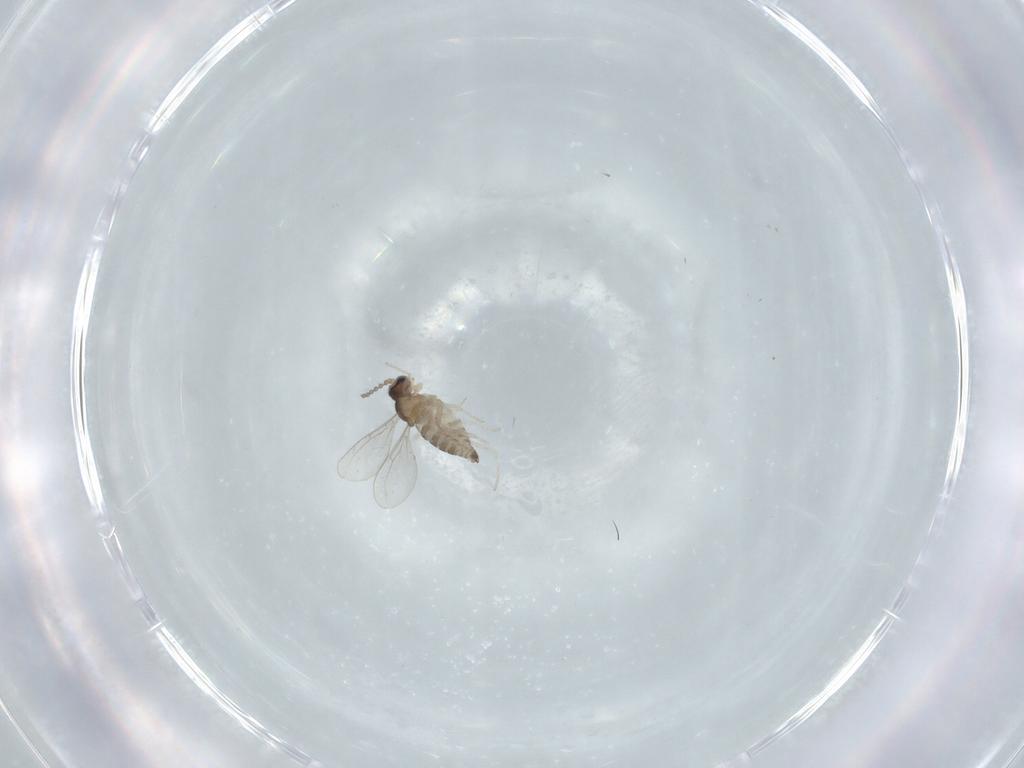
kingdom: Animalia
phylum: Arthropoda
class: Insecta
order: Diptera
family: Cecidomyiidae
